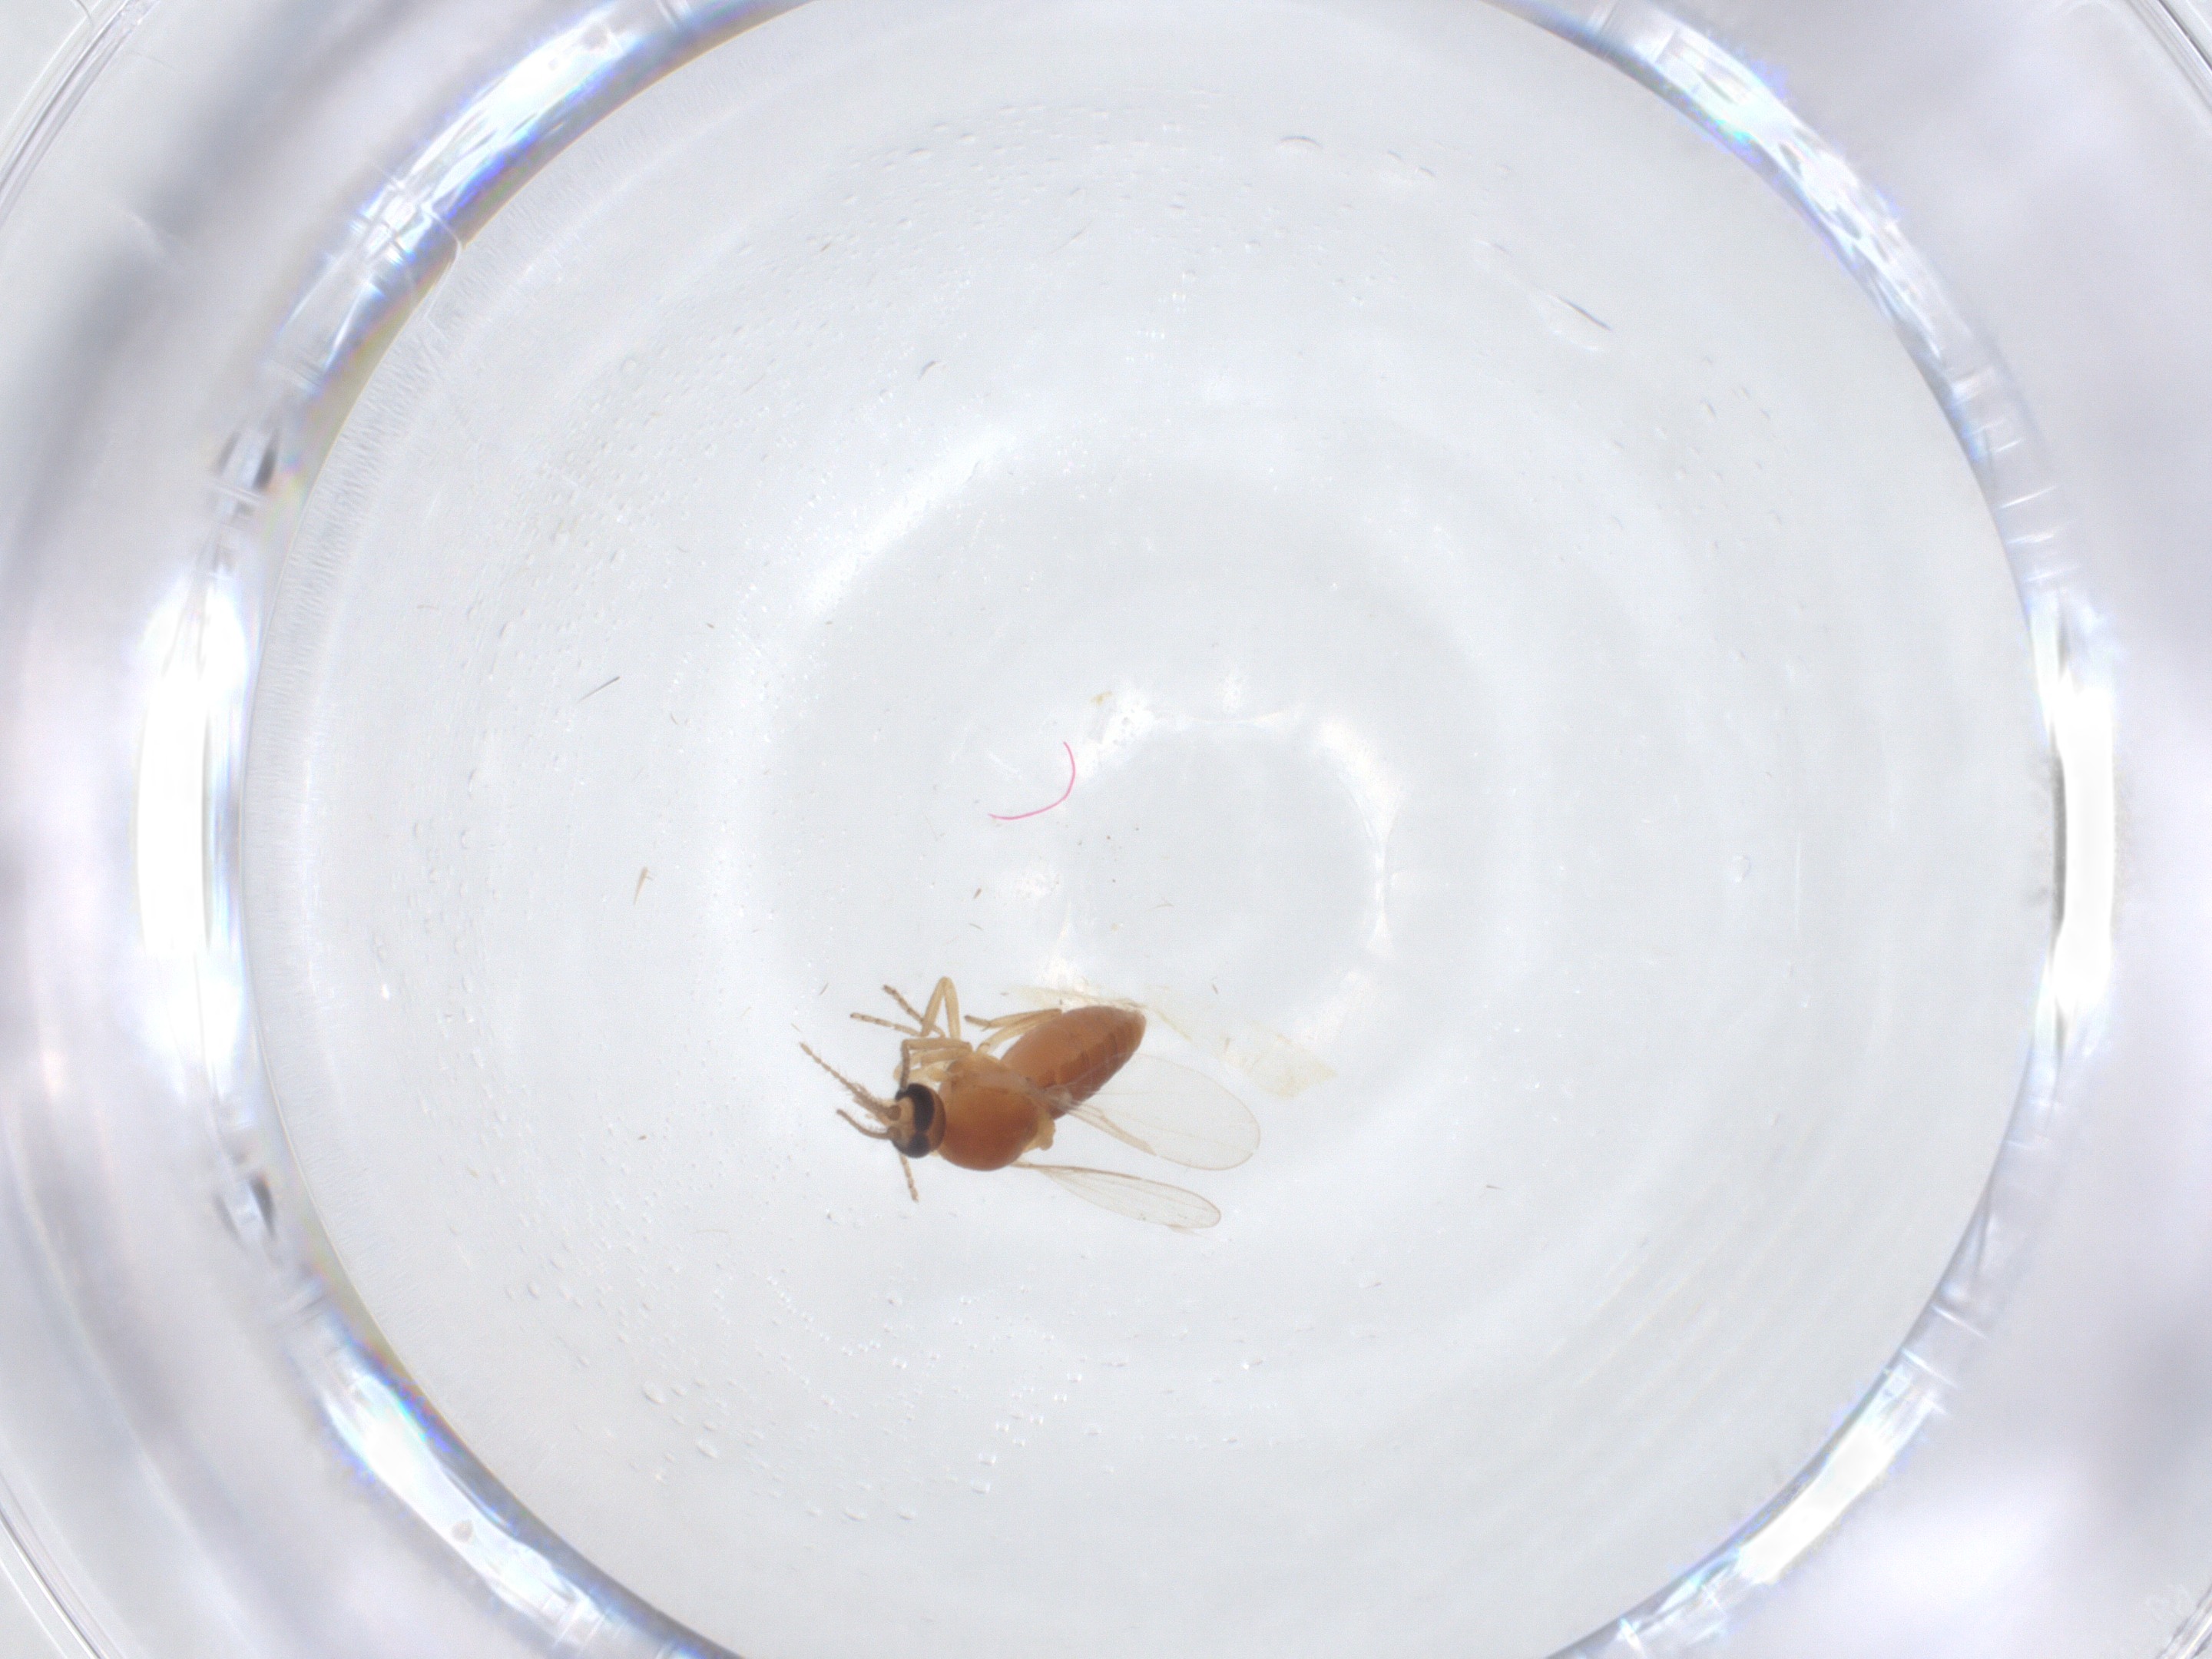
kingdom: Animalia
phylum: Arthropoda
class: Insecta
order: Diptera
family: Ceratopogonidae
